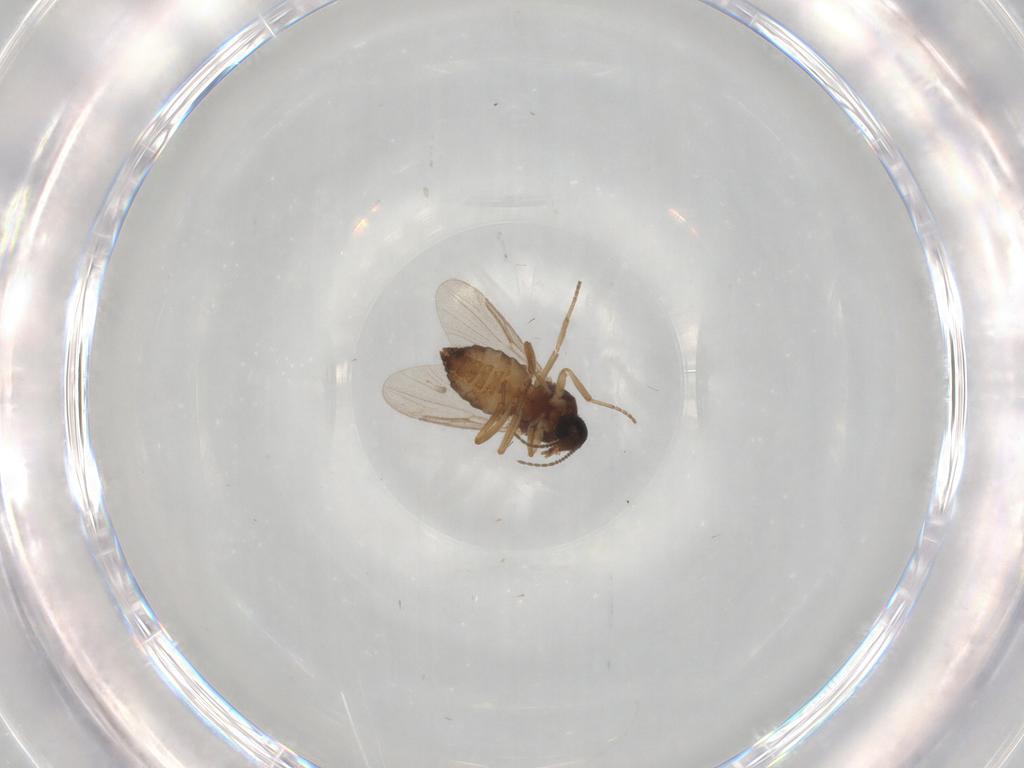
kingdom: Animalia
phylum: Arthropoda
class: Insecta
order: Diptera
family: Ceratopogonidae
